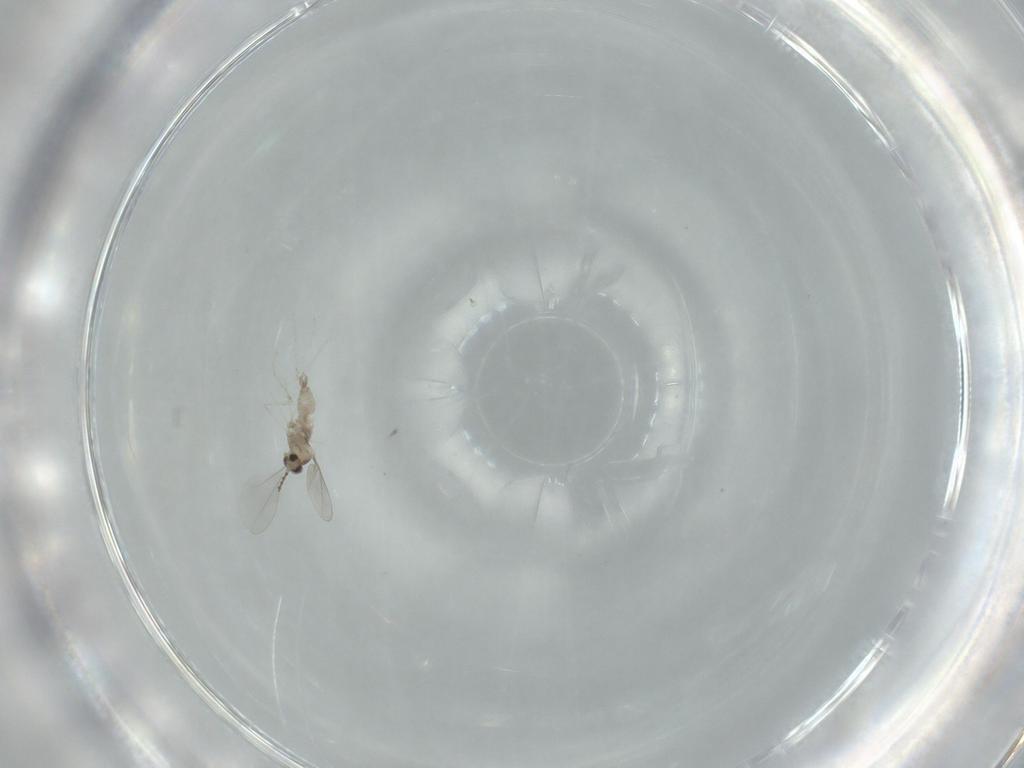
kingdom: Animalia
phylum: Arthropoda
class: Insecta
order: Diptera
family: Cecidomyiidae
